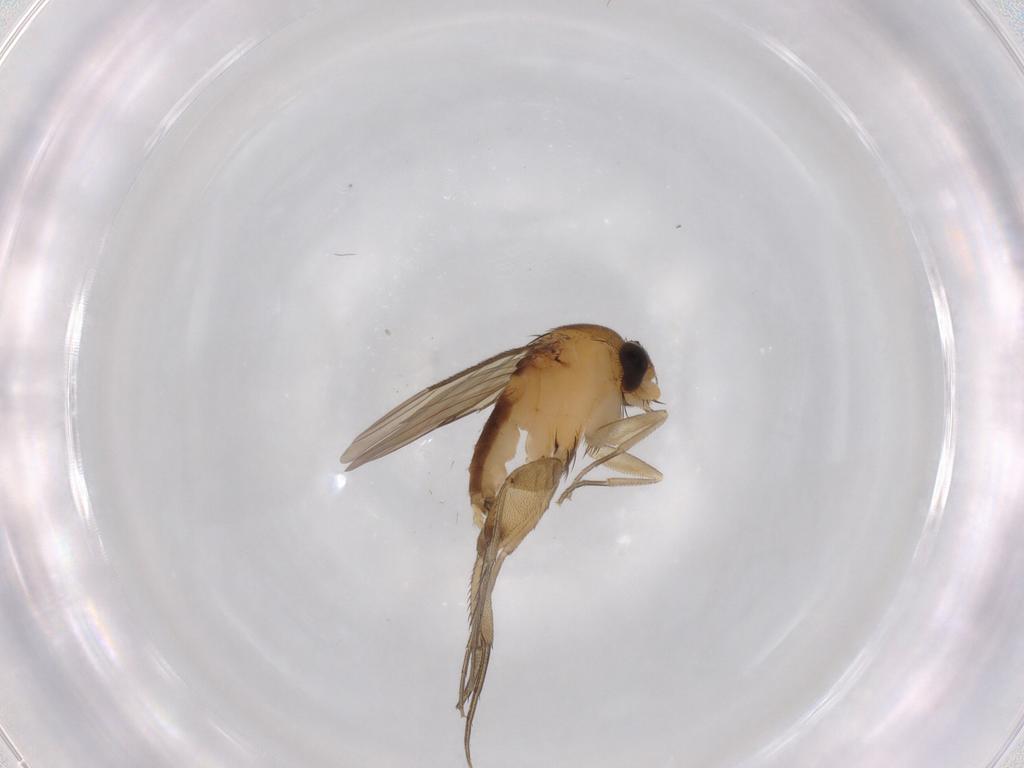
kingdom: Animalia
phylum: Arthropoda
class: Insecta
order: Diptera
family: Phoridae
